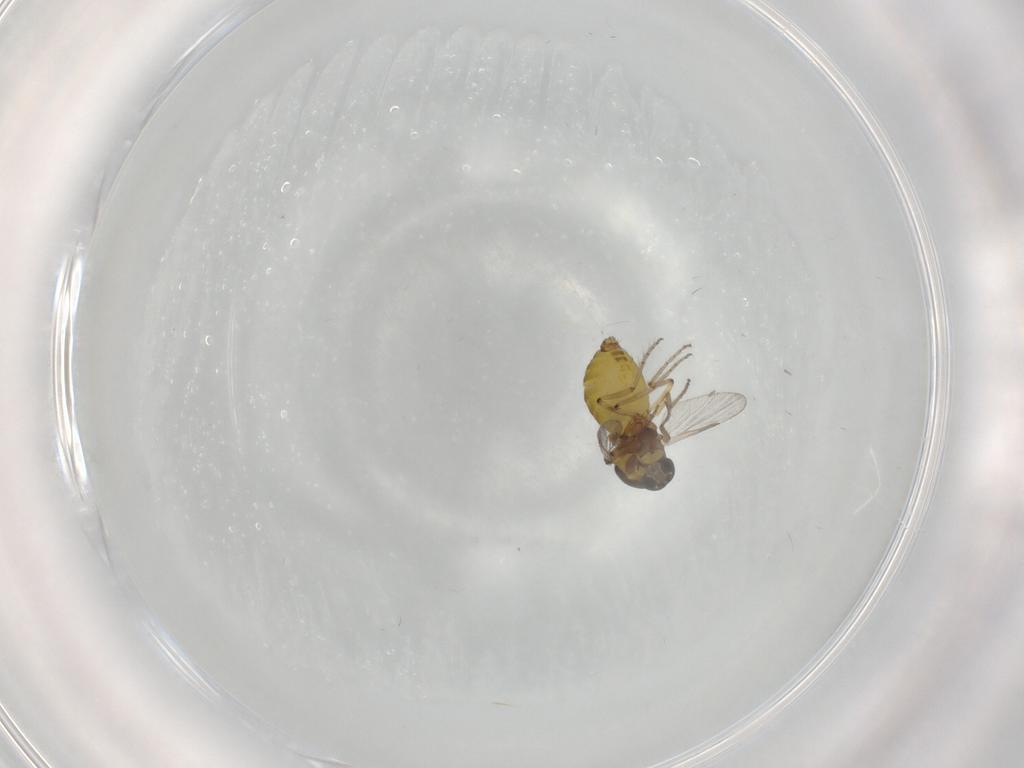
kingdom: Animalia
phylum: Arthropoda
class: Insecta
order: Diptera
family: Ceratopogonidae
